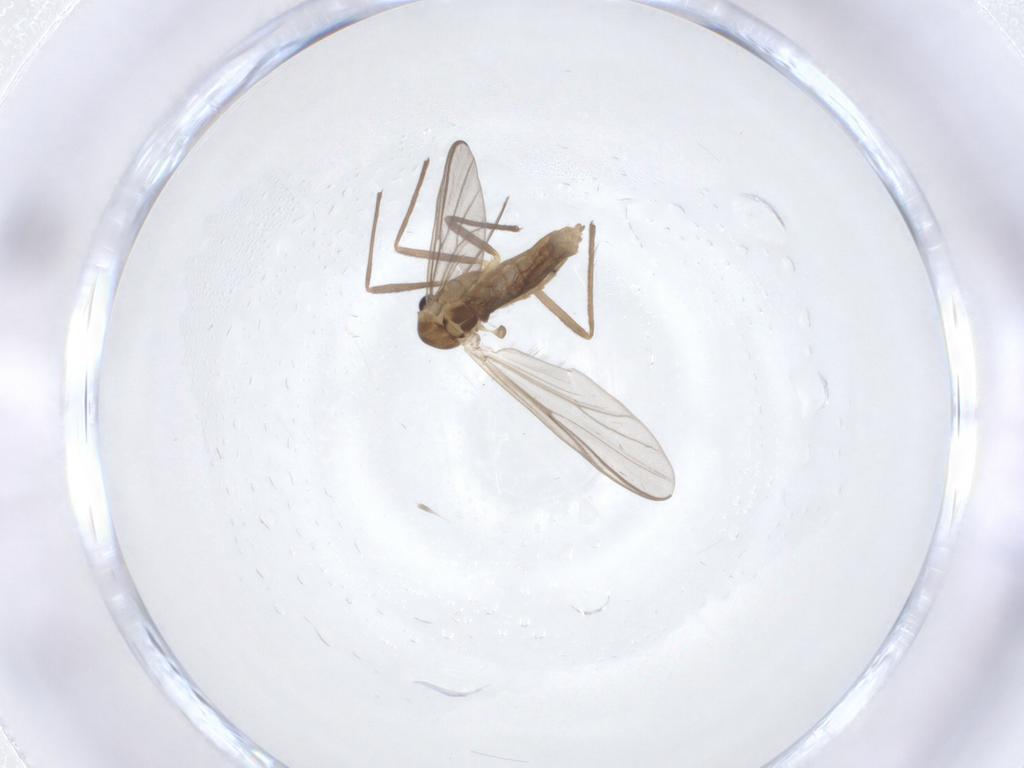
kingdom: Animalia
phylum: Arthropoda
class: Insecta
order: Diptera
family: Chironomidae
